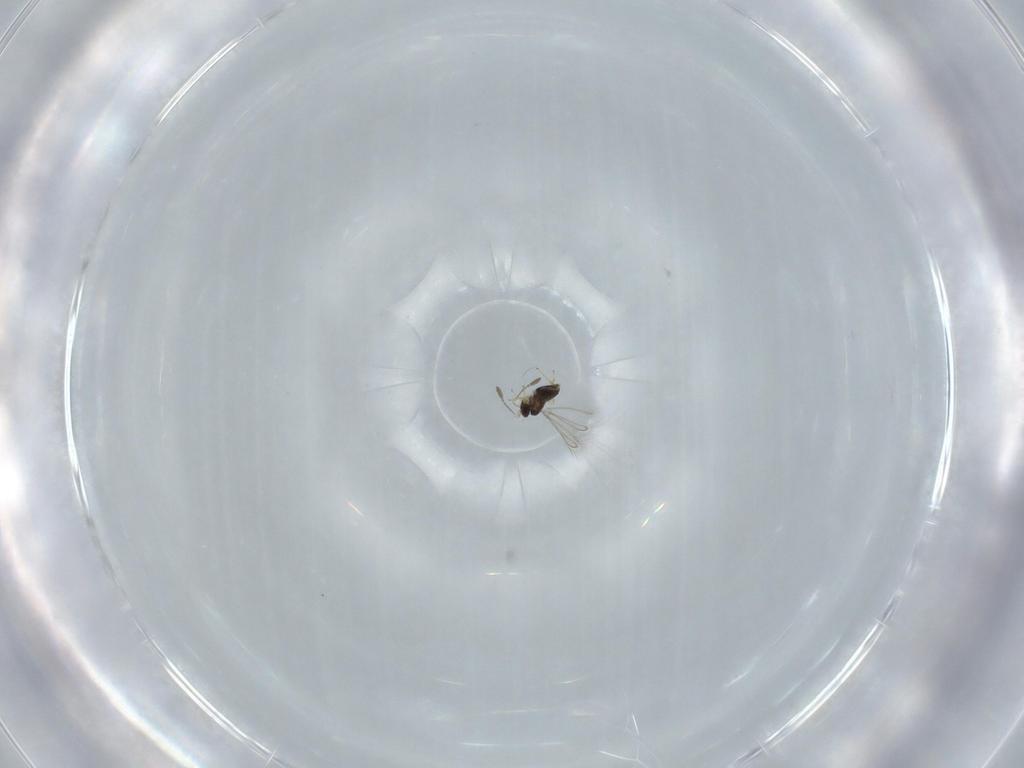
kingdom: Animalia
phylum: Arthropoda
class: Insecta
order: Hymenoptera
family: Mymaridae
